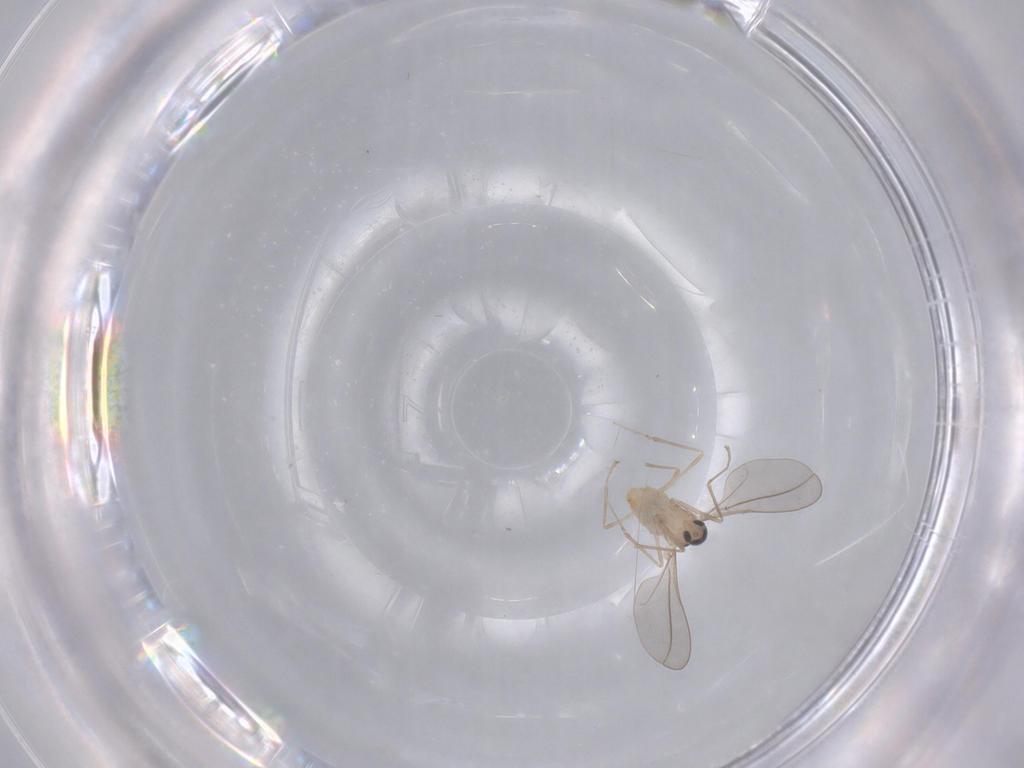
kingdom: Animalia
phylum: Arthropoda
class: Insecta
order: Diptera
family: Cecidomyiidae
